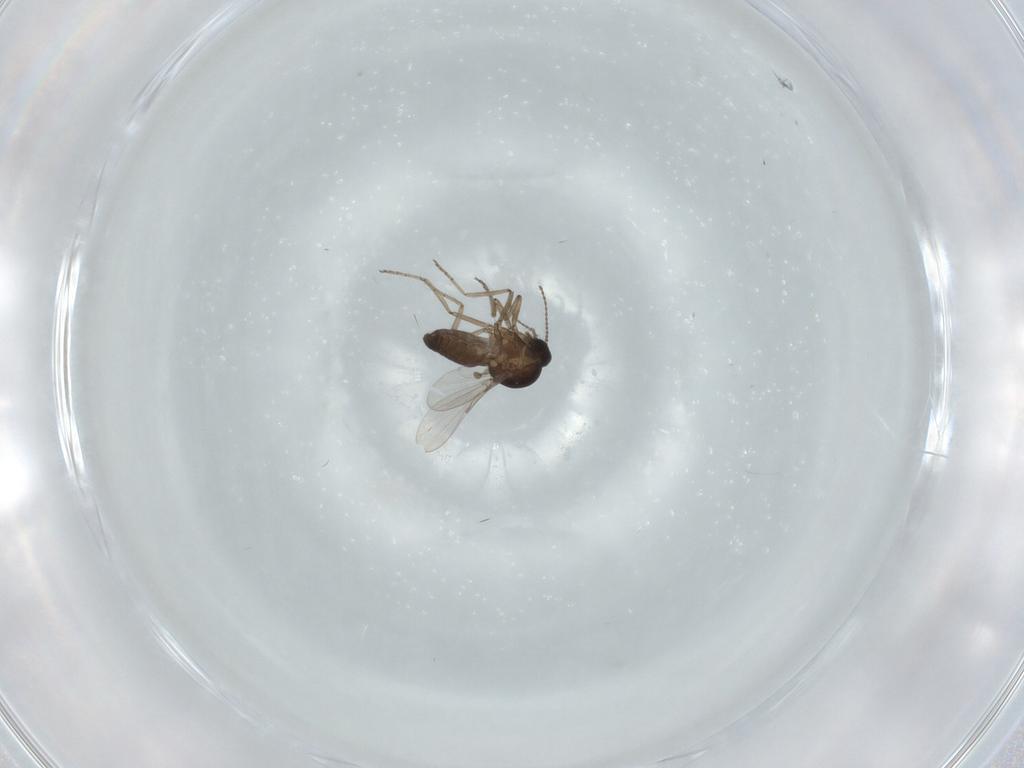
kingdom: Animalia
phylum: Arthropoda
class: Insecta
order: Diptera
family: Ceratopogonidae
